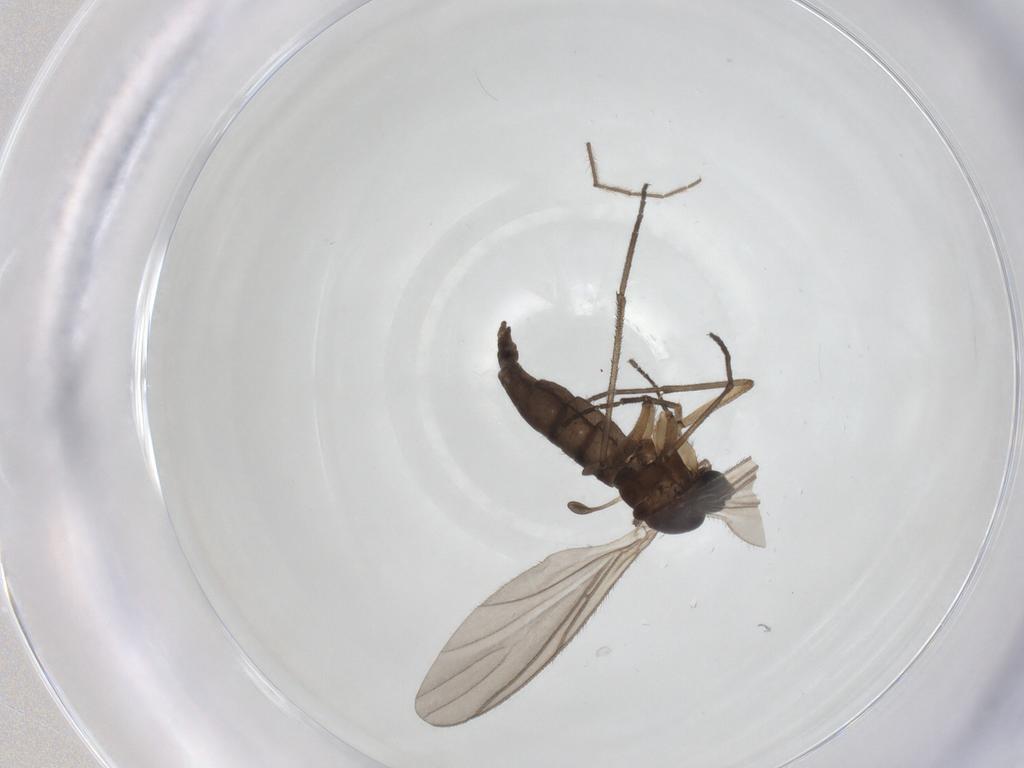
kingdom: Animalia
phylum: Arthropoda
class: Insecta
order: Diptera
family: Sciaridae
